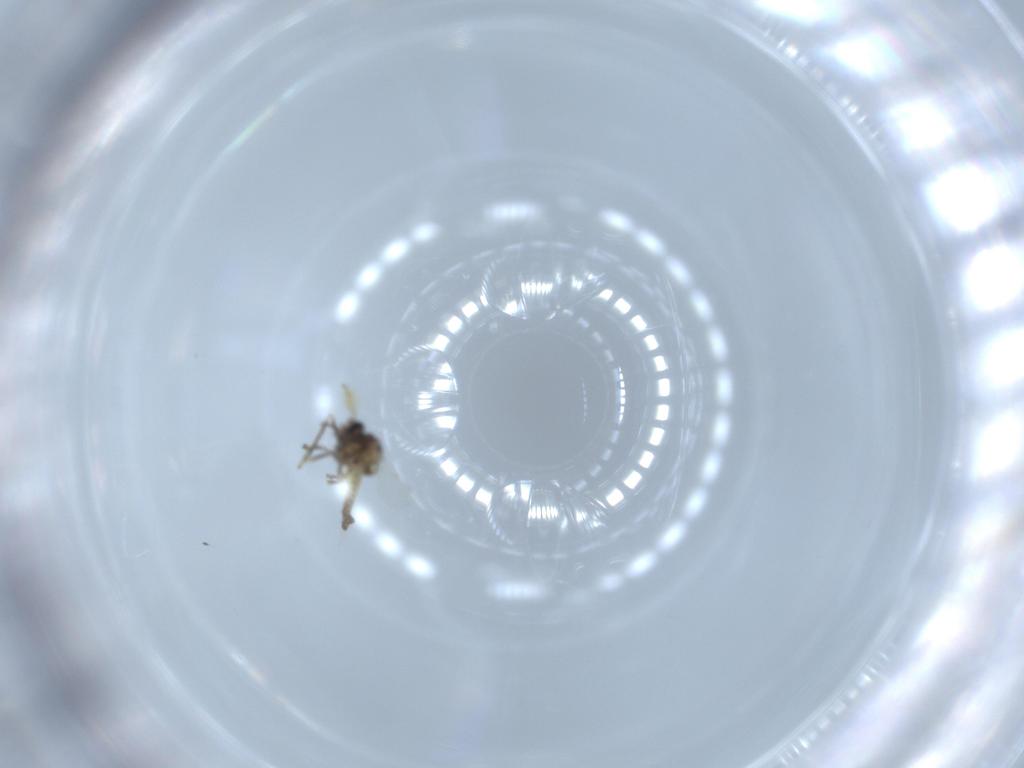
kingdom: Animalia
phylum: Arthropoda
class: Insecta
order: Diptera
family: Ceratopogonidae
